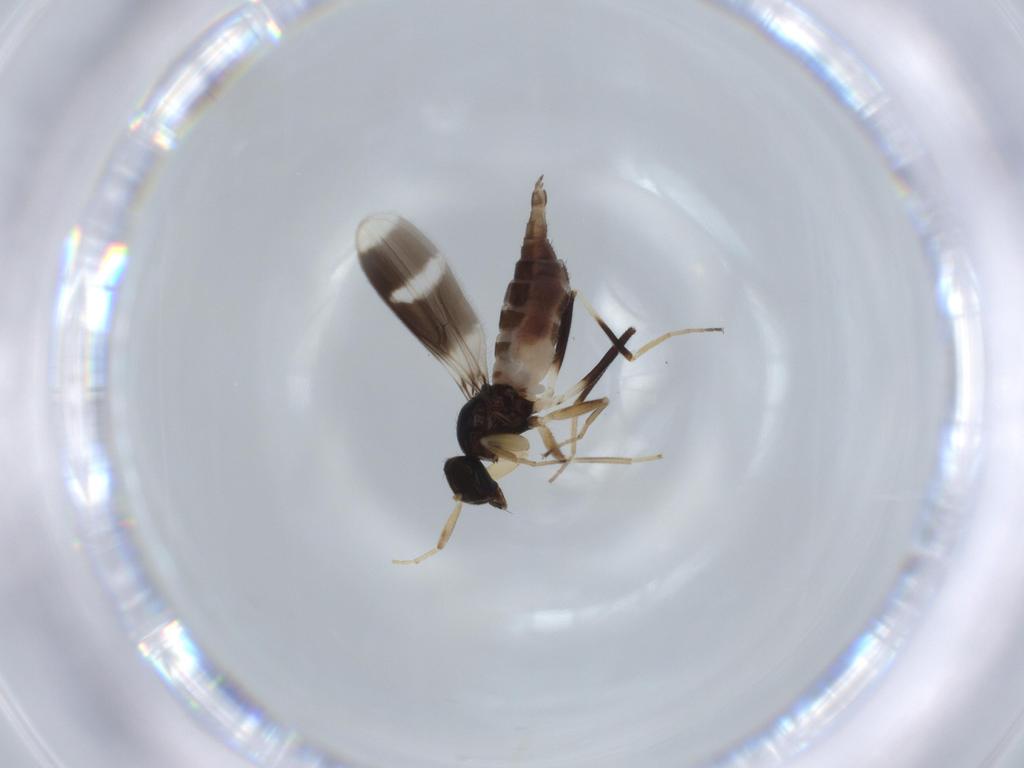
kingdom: Animalia
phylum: Arthropoda
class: Insecta
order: Diptera
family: Hybotidae
